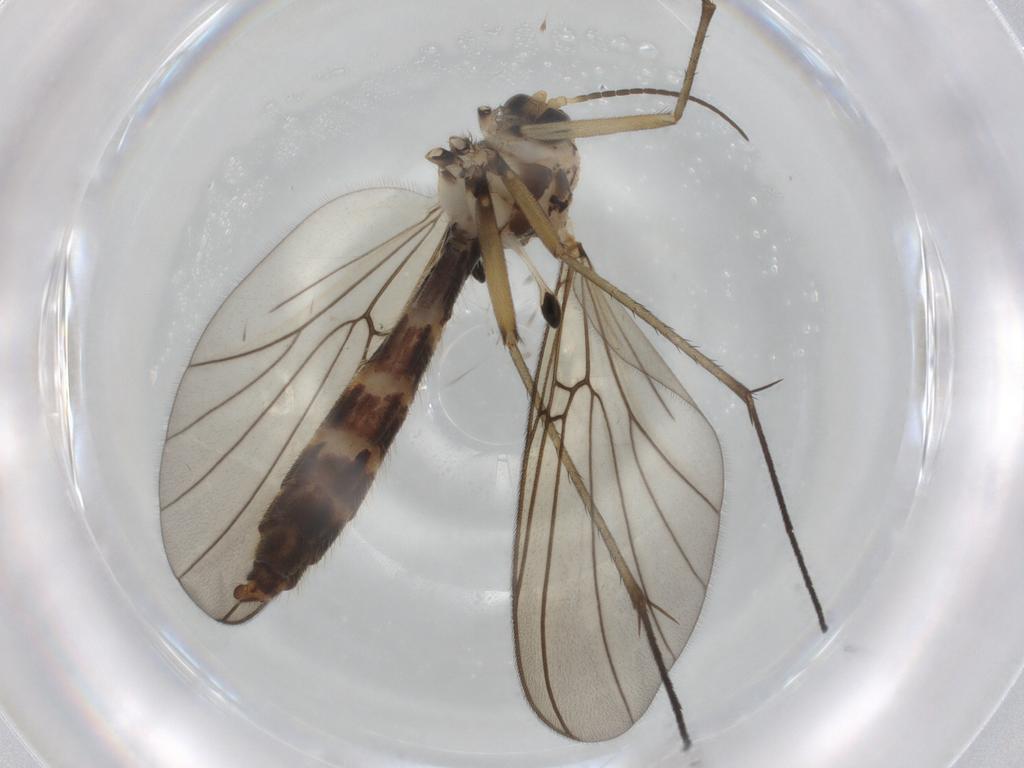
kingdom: Animalia
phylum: Arthropoda
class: Insecta
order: Diptera
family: Mycetophilidae
